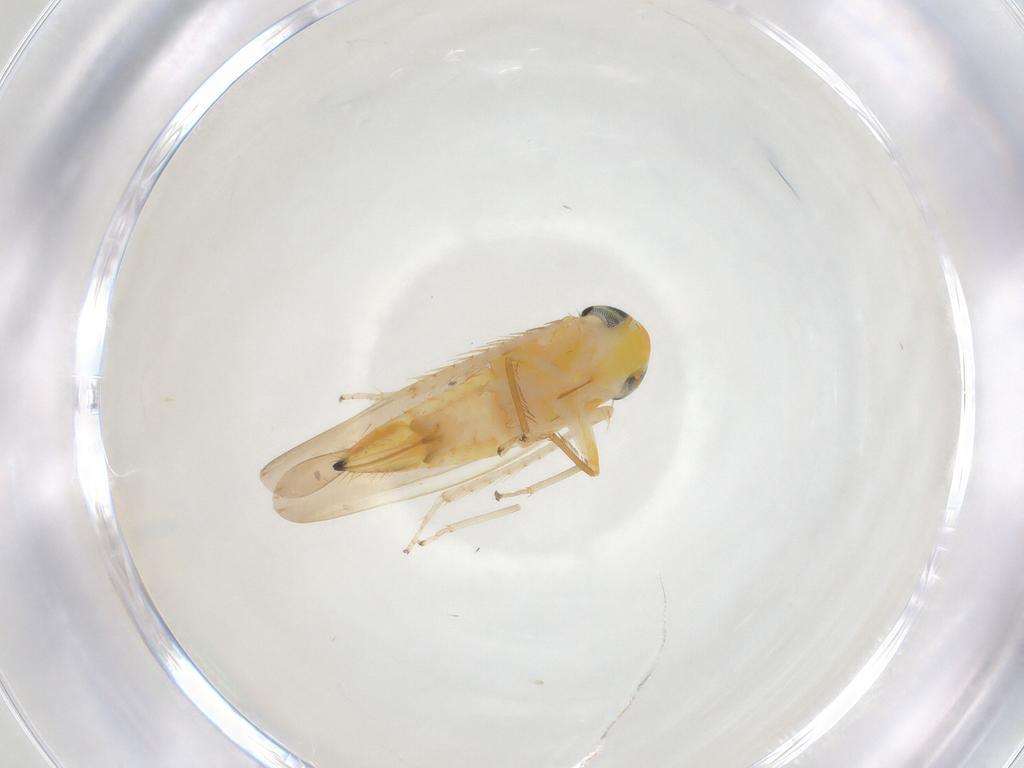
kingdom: Animalia
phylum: Arthropoda
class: Insecta
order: Hemiptera
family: Cicadellidae
